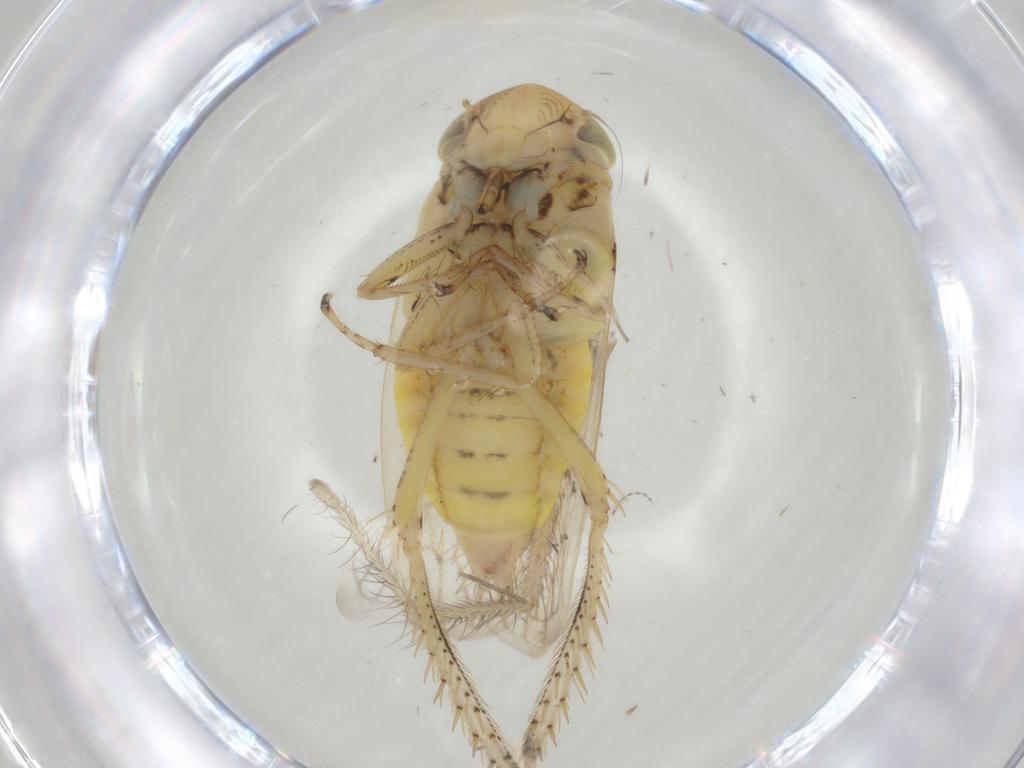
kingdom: Animalia
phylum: Arthropoda
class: Insecta
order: Hemiptera
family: Cicadellidae
